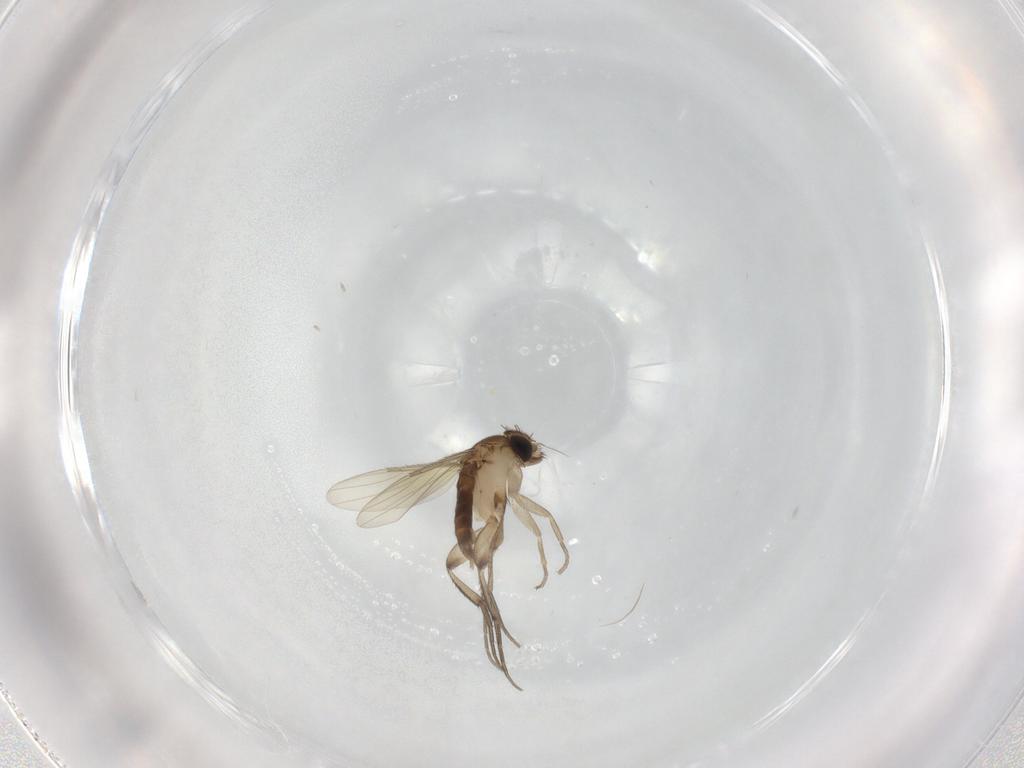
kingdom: Animalia
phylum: Arthropoda
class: Insecta
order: Diptera
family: Phoridae
